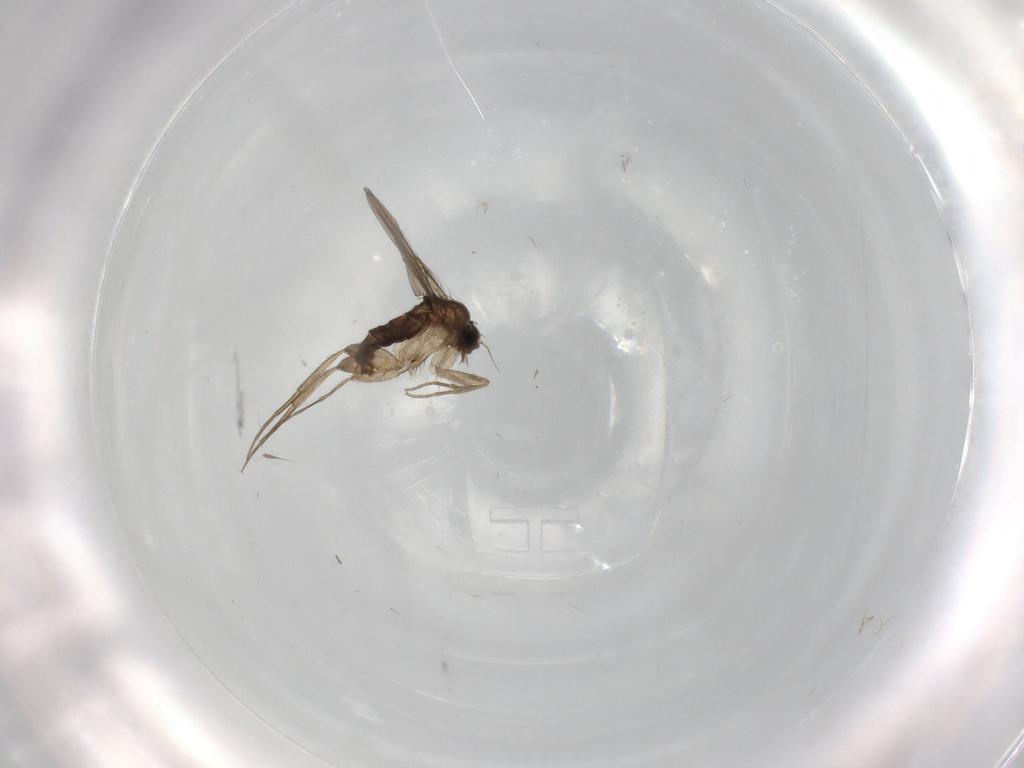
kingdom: Animalia
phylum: Arthropoda
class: Insecta
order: Diptera
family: Phoridae
